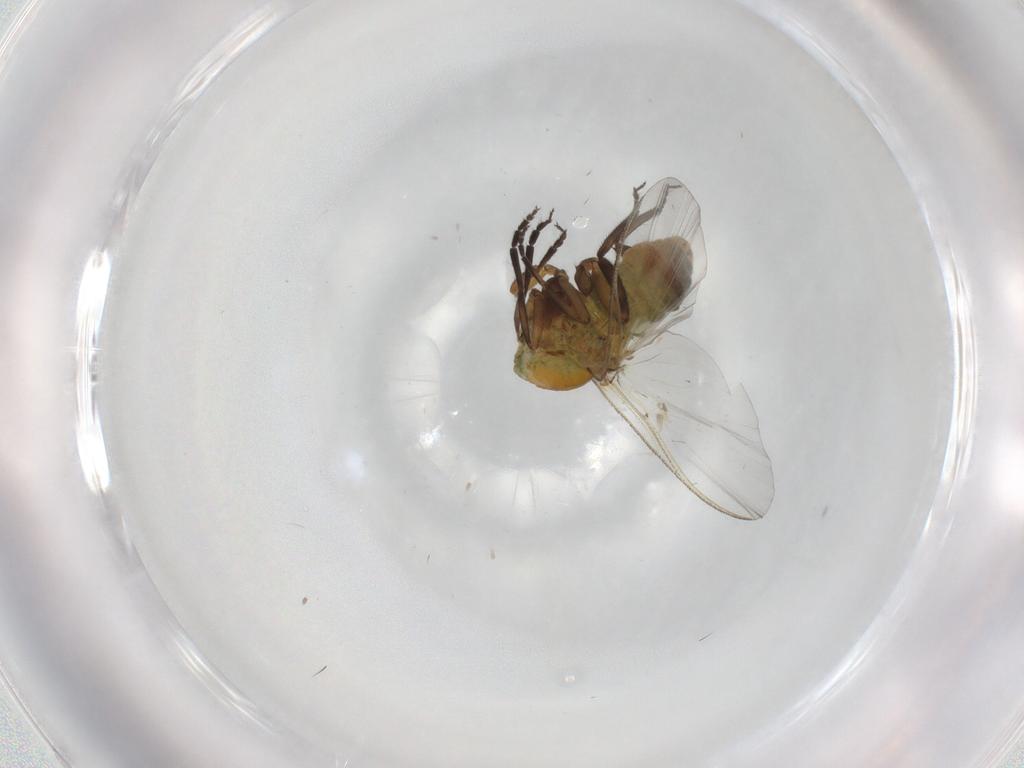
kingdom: Animalia
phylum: Arthropoda
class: Insecta
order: Diptera
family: Simuliidae
